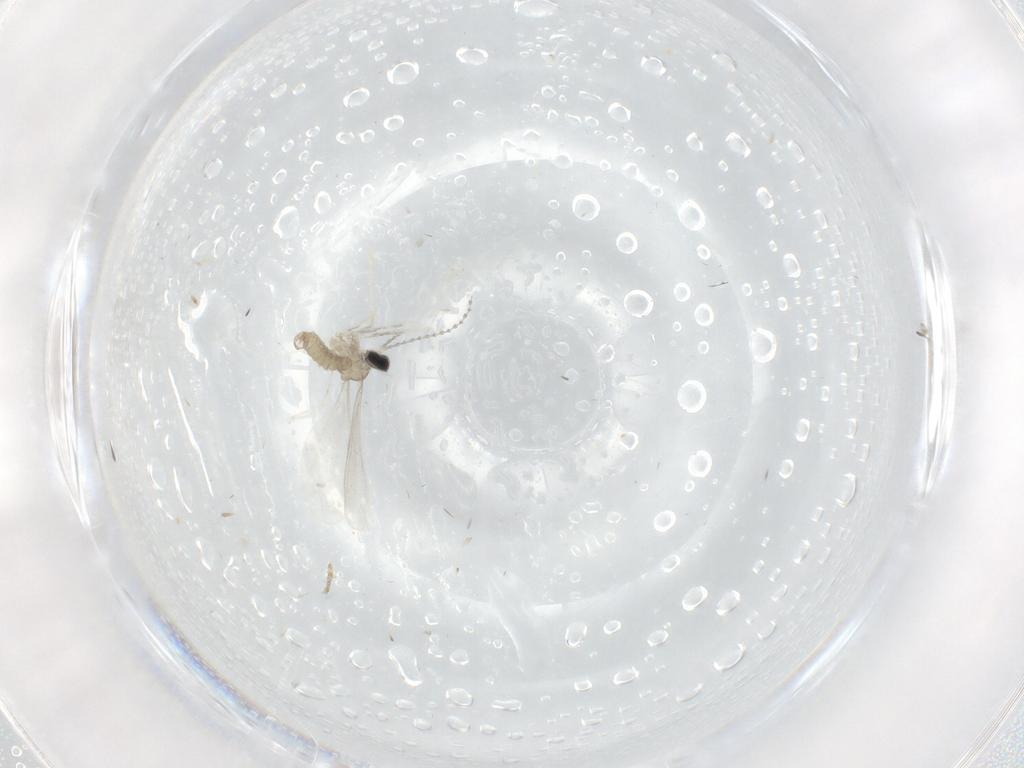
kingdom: Animalia
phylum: Arthropoda
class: Insecta
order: Diptera
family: Cecidomyiidae
